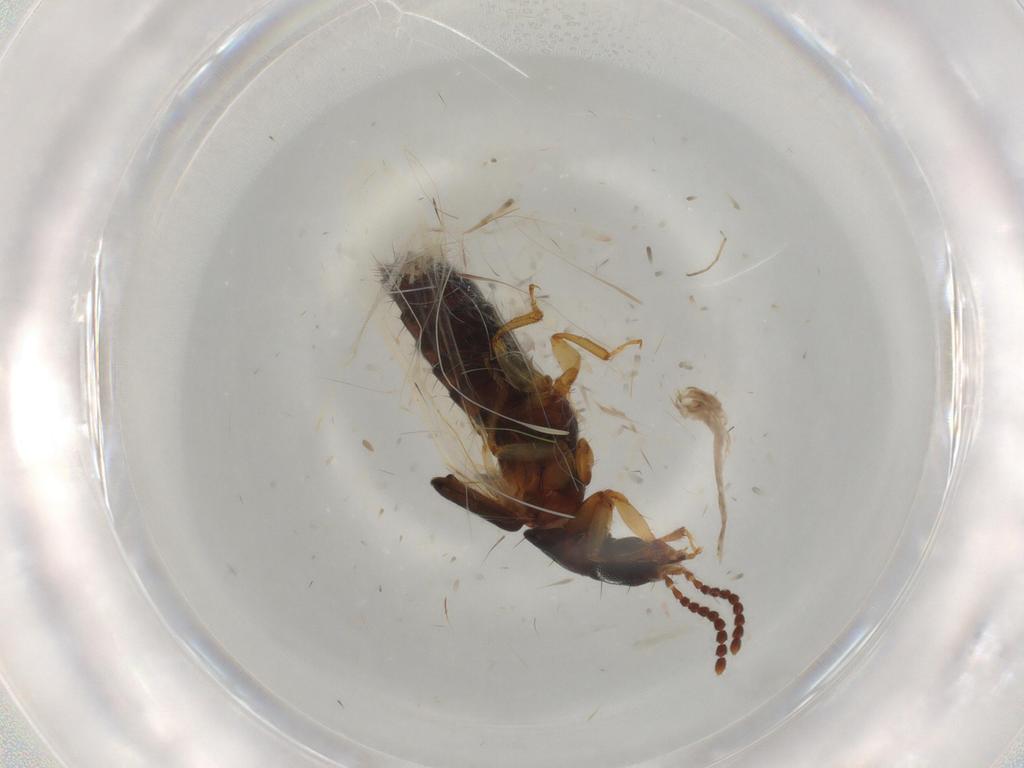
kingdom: Animalia
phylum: Arthropoda
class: Insecta
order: Coleoptera
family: Staphylinidae
